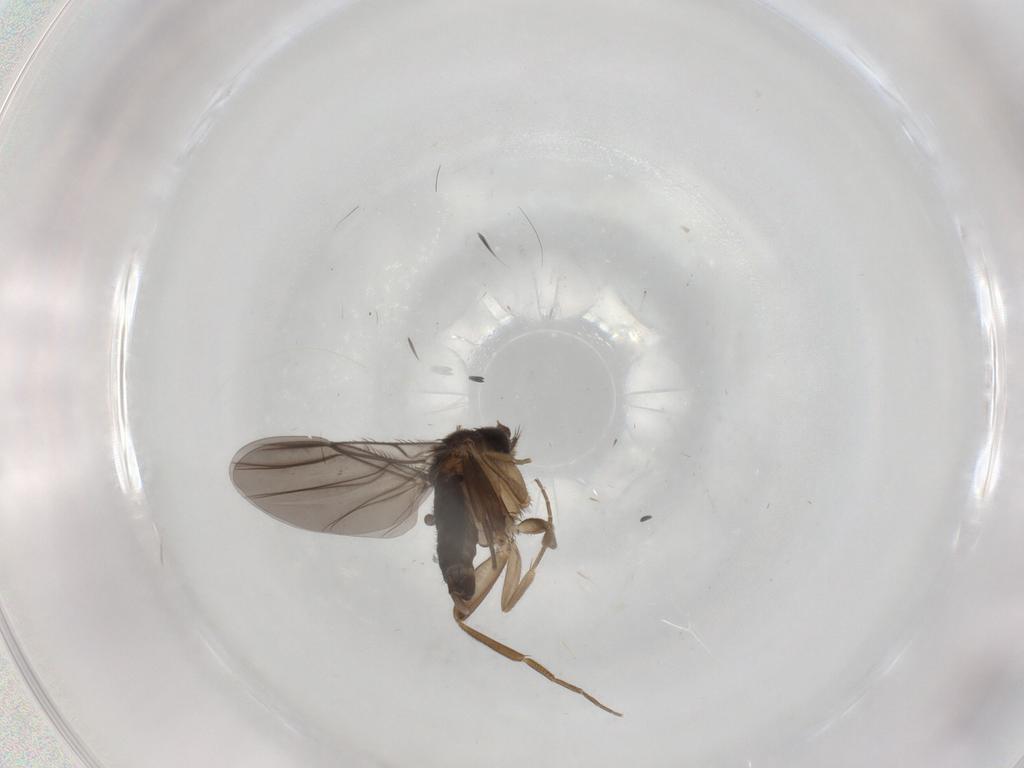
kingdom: Animalia
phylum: Arthropoda
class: Insecta
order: Diptera
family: Phoridae
